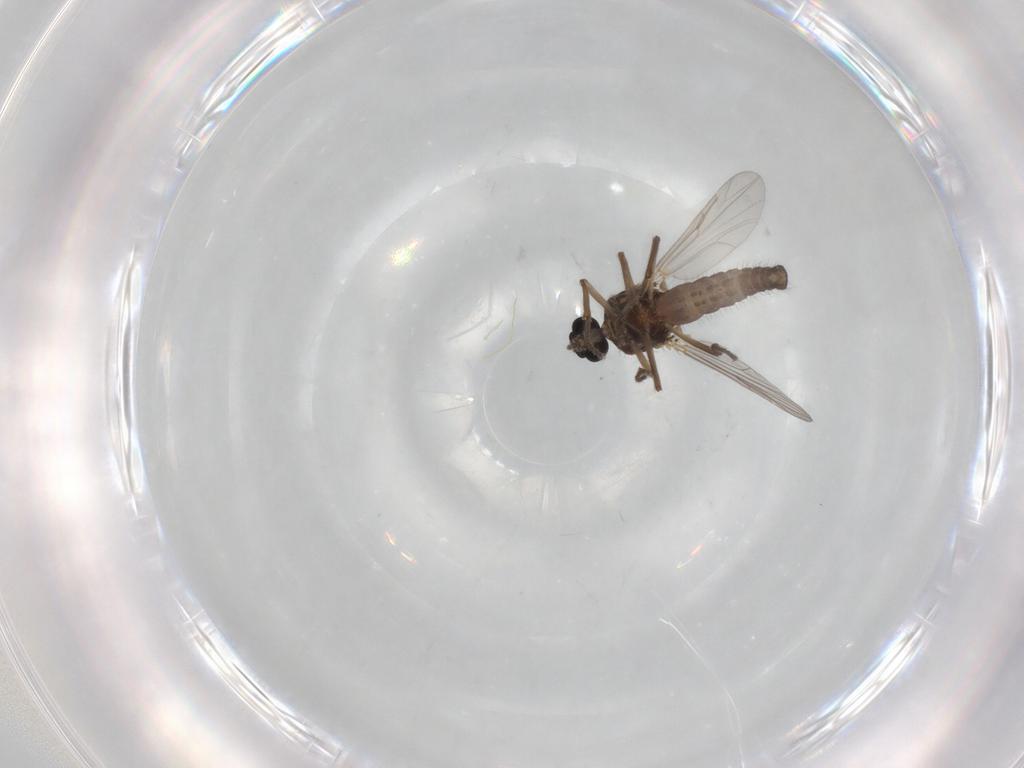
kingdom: Animalia
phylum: Arthropoda
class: Insecta
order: Diptera
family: Ceratopogonidae
